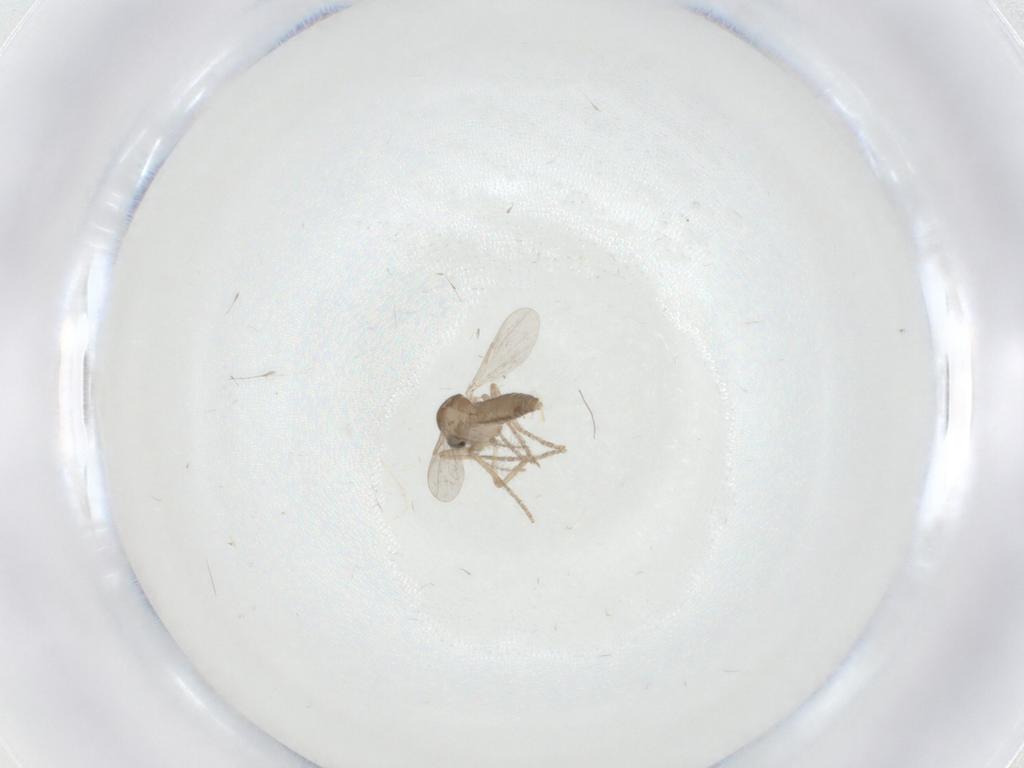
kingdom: Animalia
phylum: Arthropoda
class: Insecta
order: Diptera
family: Ceratopogonidae
